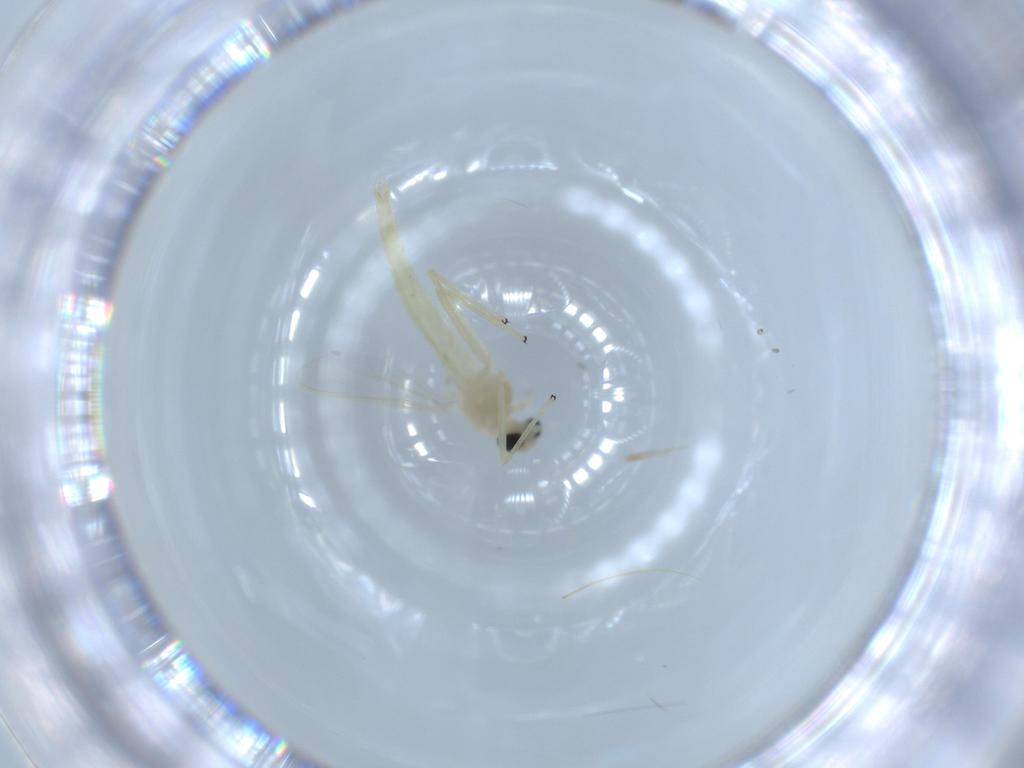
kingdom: Animalia
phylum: Arthropoda
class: Insecta
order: Diptera
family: Chironomidae
